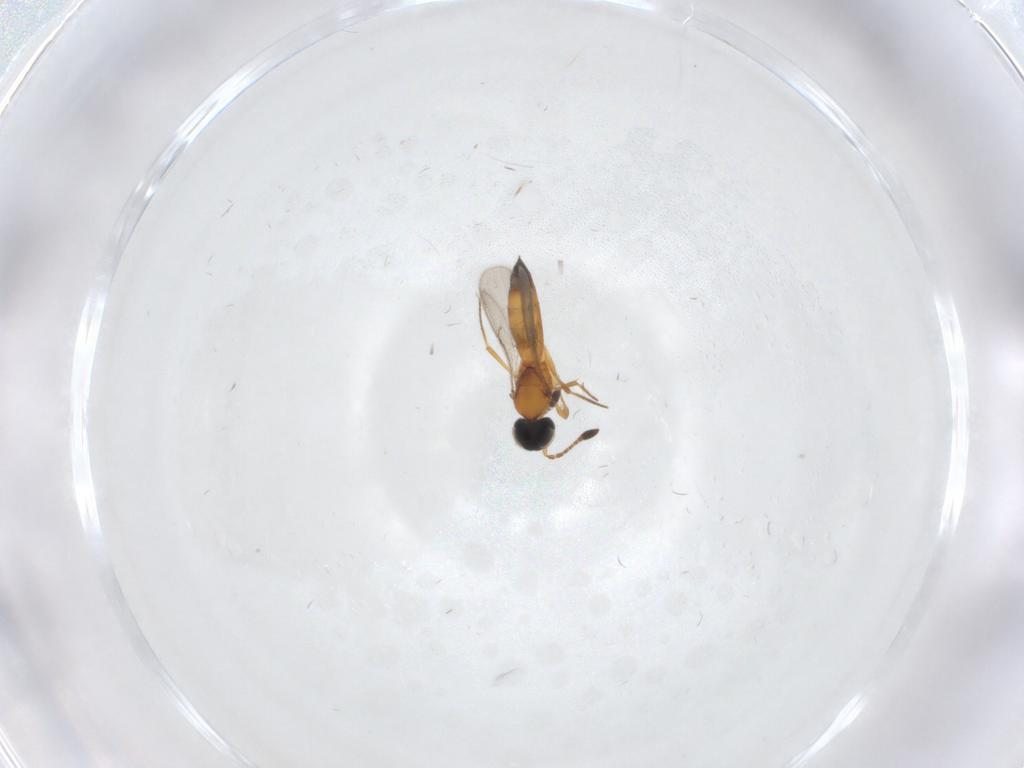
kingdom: Animalia
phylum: Arthropoda
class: Insecta
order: Hymenoptera
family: Scelionidae
